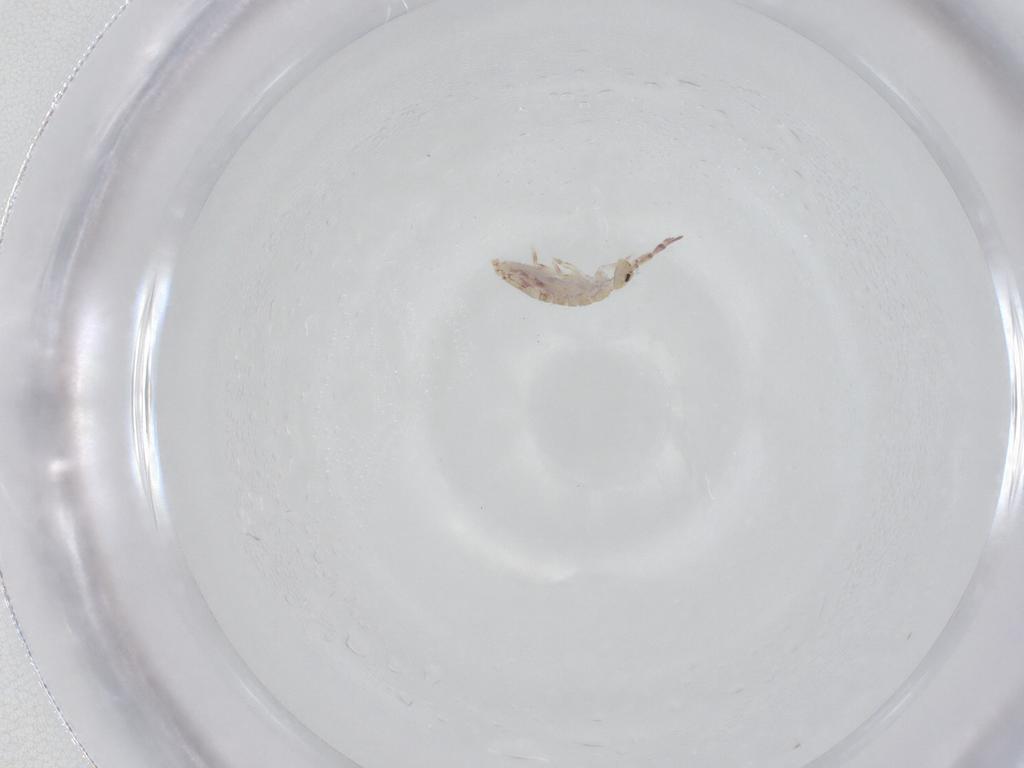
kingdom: Animalia
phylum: Arthropoda
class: Collembola
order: Entomobryomorpha
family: Entomobryidae
